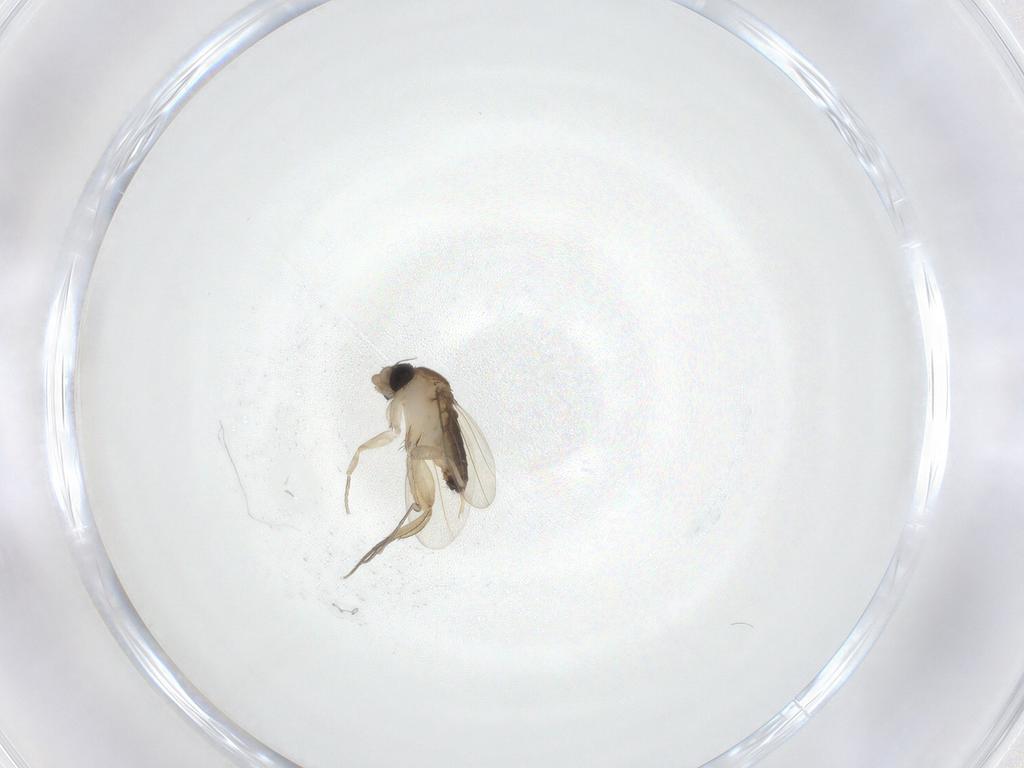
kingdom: Animalia
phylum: Arthropoda
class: Insecta
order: Diptera
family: Phoridae
